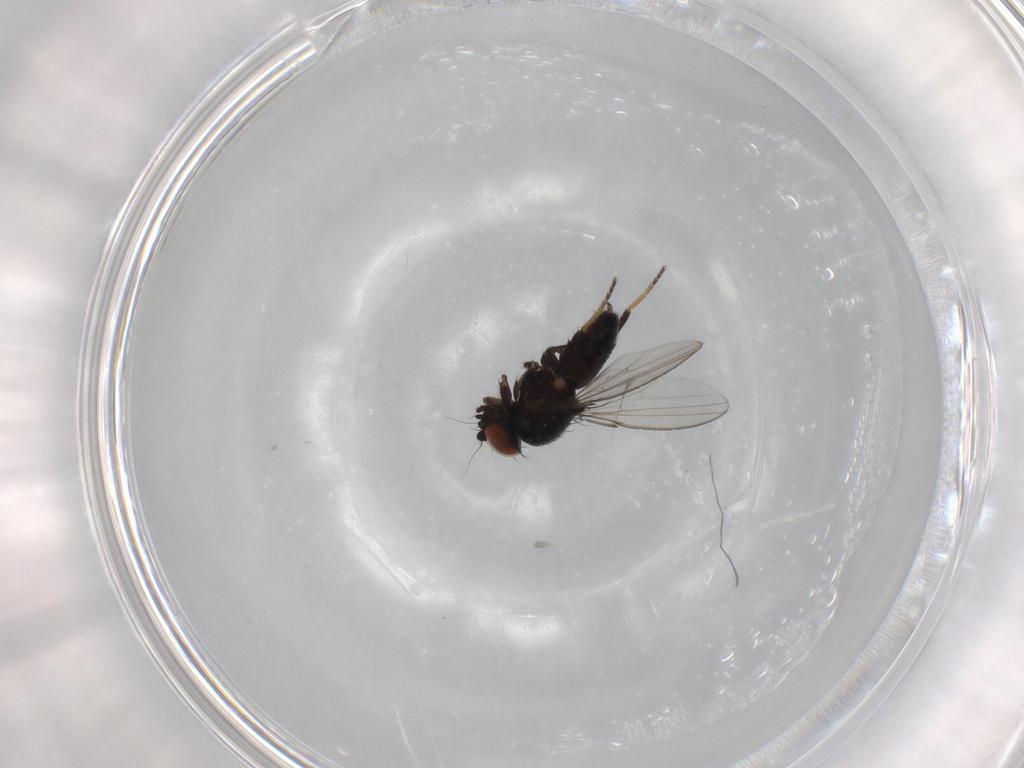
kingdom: Animalia
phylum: Arthropoda
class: Insecta
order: Diptera
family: Milichiidae
